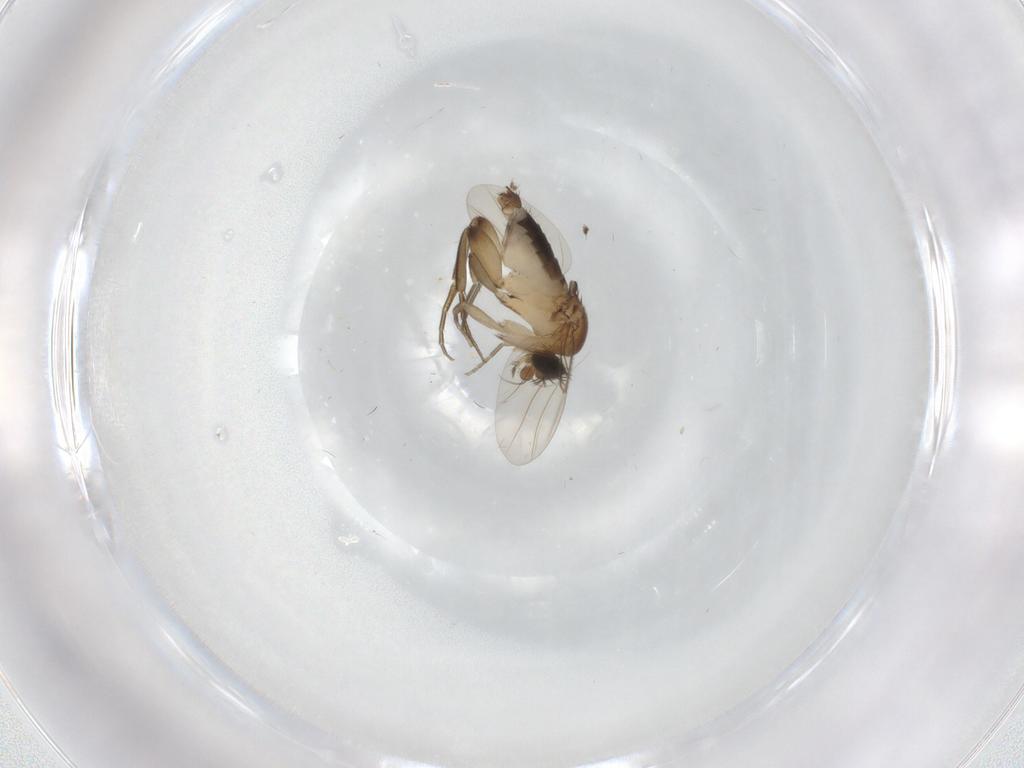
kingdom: Animalia
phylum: Arthropoda
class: Insecta
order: Diptera
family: Phoridae
